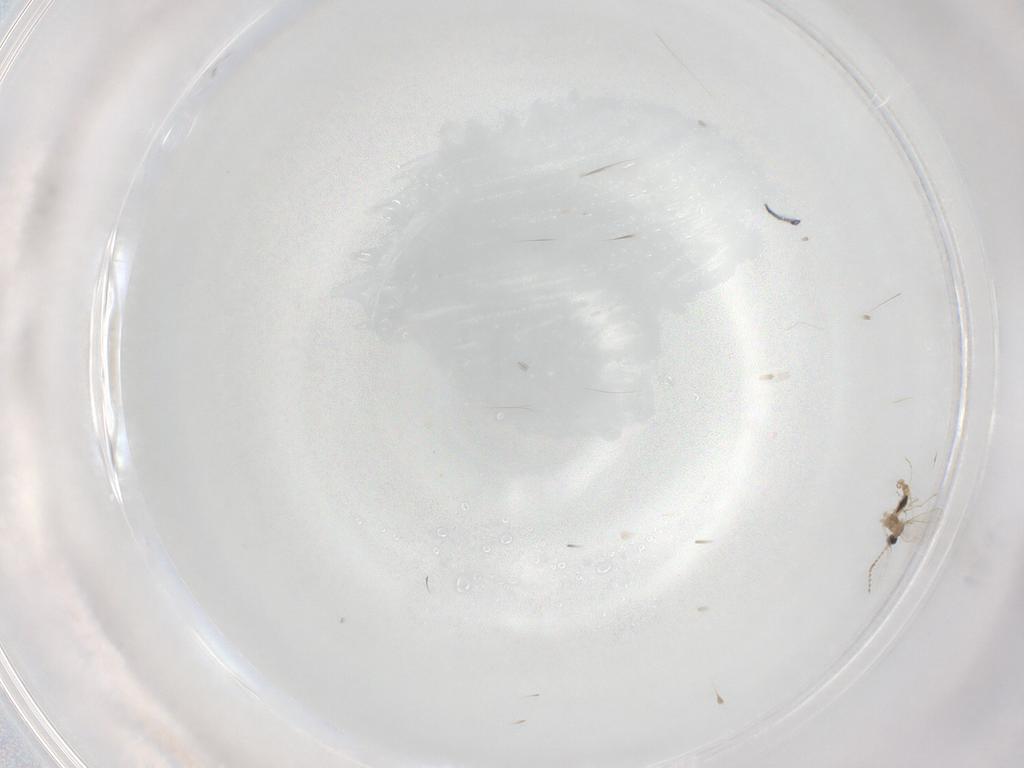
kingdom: Animalia
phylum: Arthropoda
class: Insecta
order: Diptera
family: Cecidomyiidae
